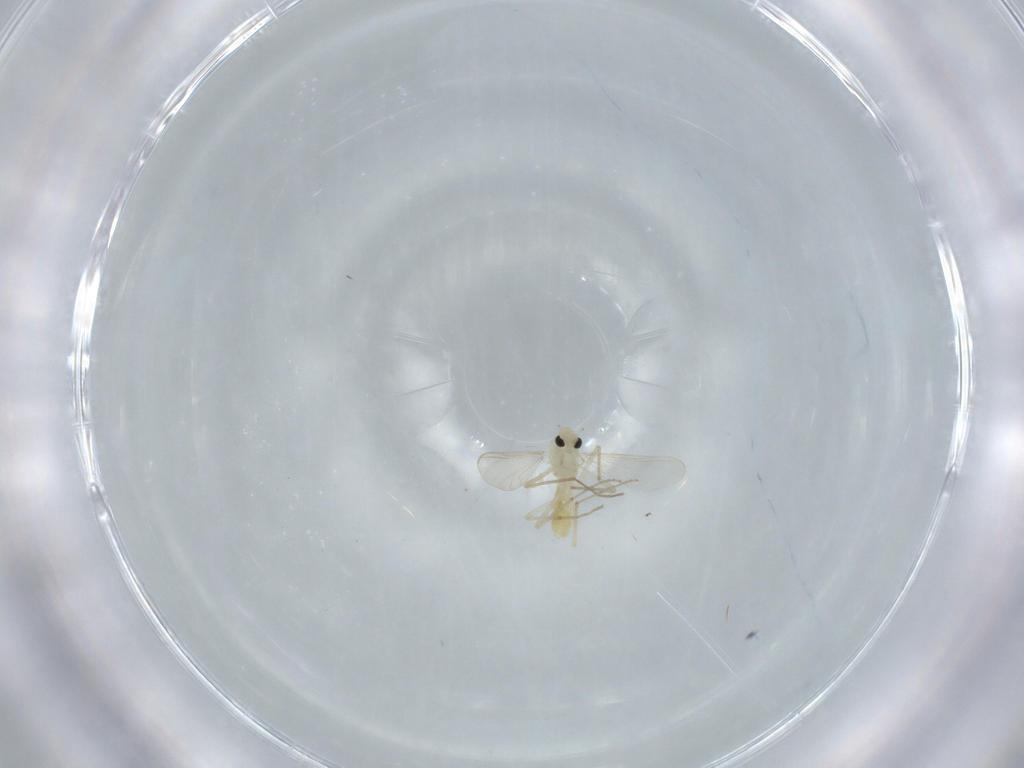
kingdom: Animalia
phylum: Arthropoda
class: Insecta
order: Diptera
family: Chironomidae
